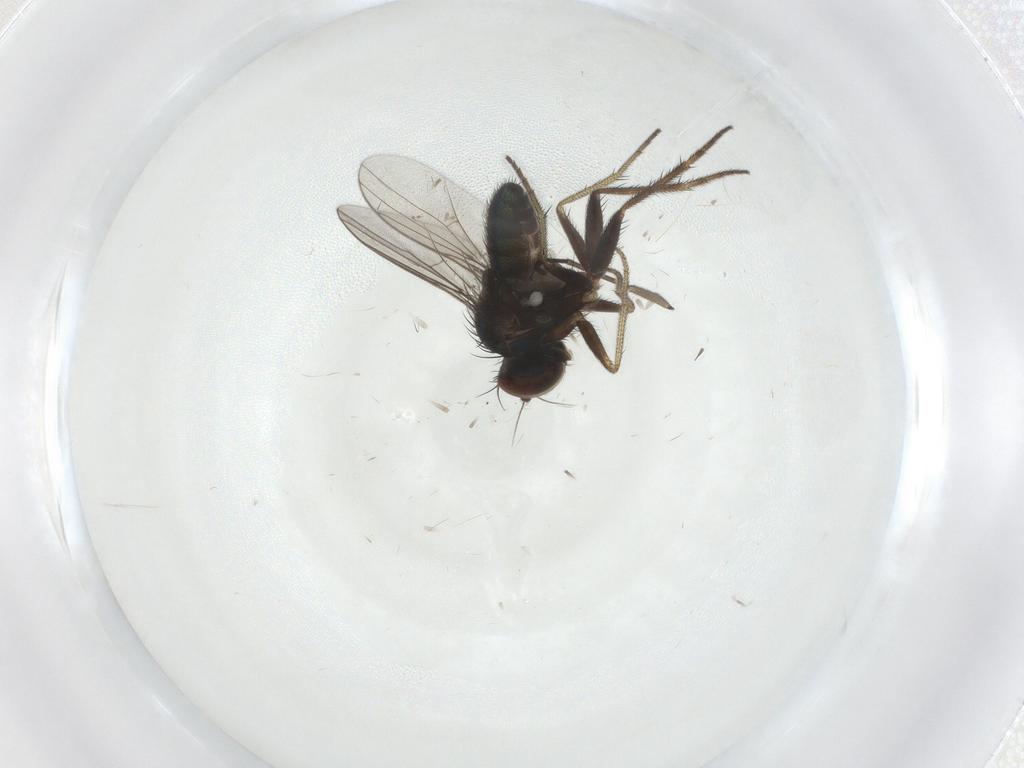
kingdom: Animalia
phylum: Arthropoda
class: Insecta
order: Diptera
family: Sciaridae
